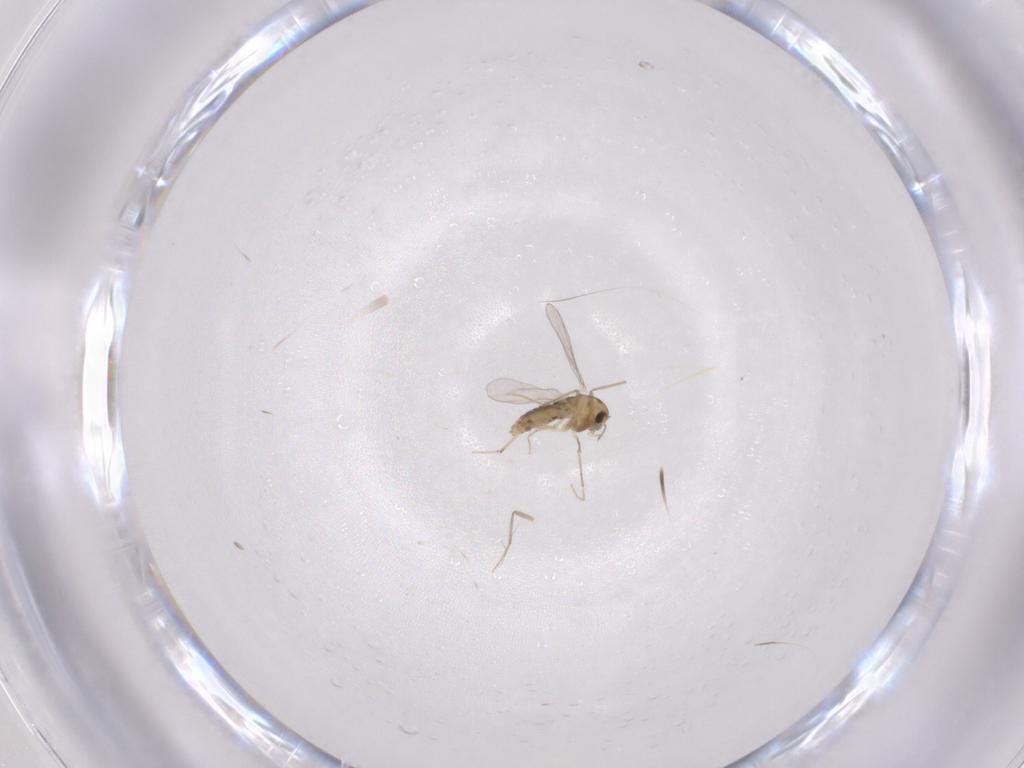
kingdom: Animalia
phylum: Arthropoda
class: Insecta
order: Diptera
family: Chironomidae
